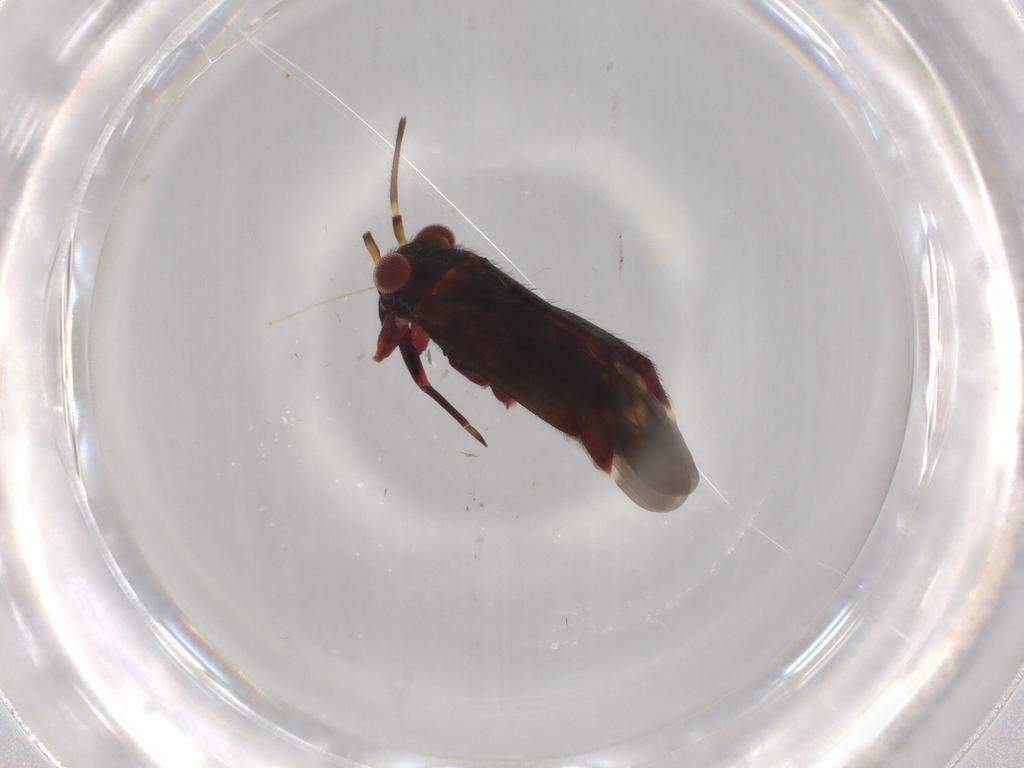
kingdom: Animalia
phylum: Arthropoda
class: Insecta
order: Hemiptera
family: Miridae
